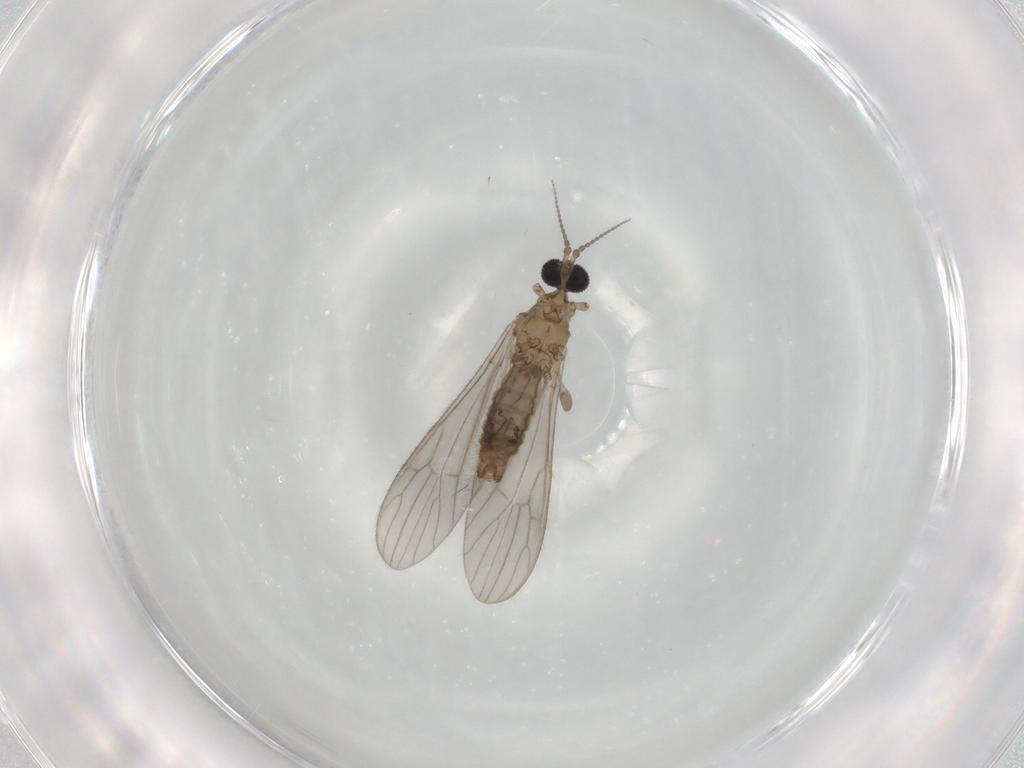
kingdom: Animalia
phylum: Arthropoda
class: Insecta
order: Diptera
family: Limoniidae
